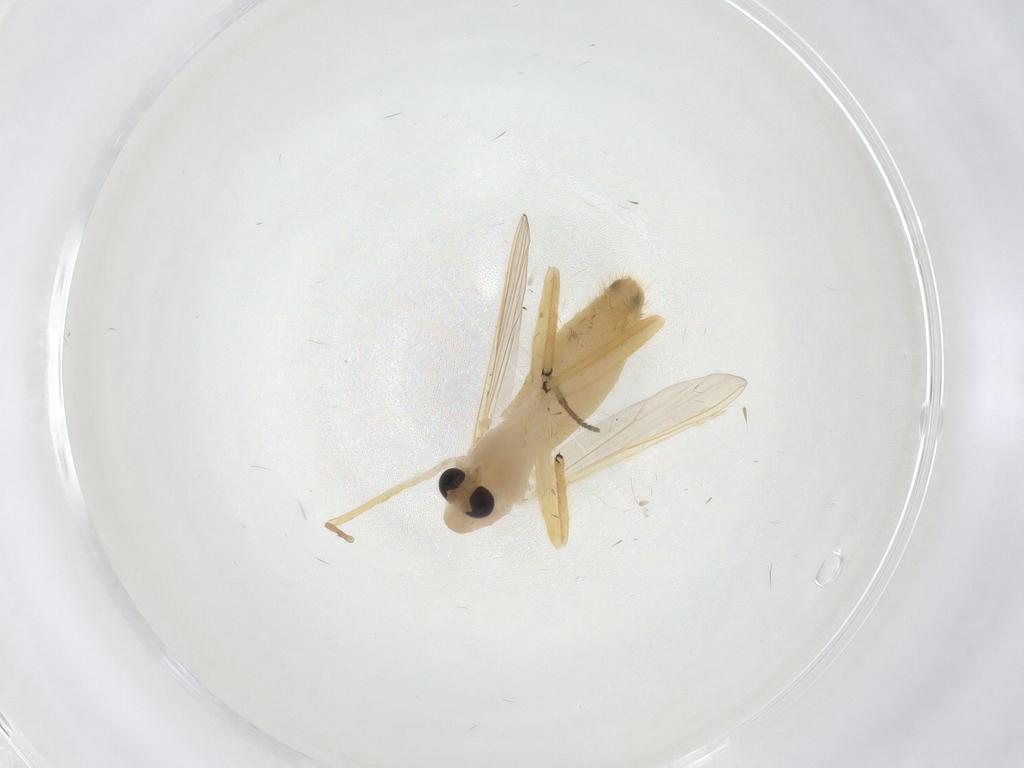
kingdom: Animalia
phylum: Arthropoda
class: Insecta
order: Diptera
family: Chironomidae
